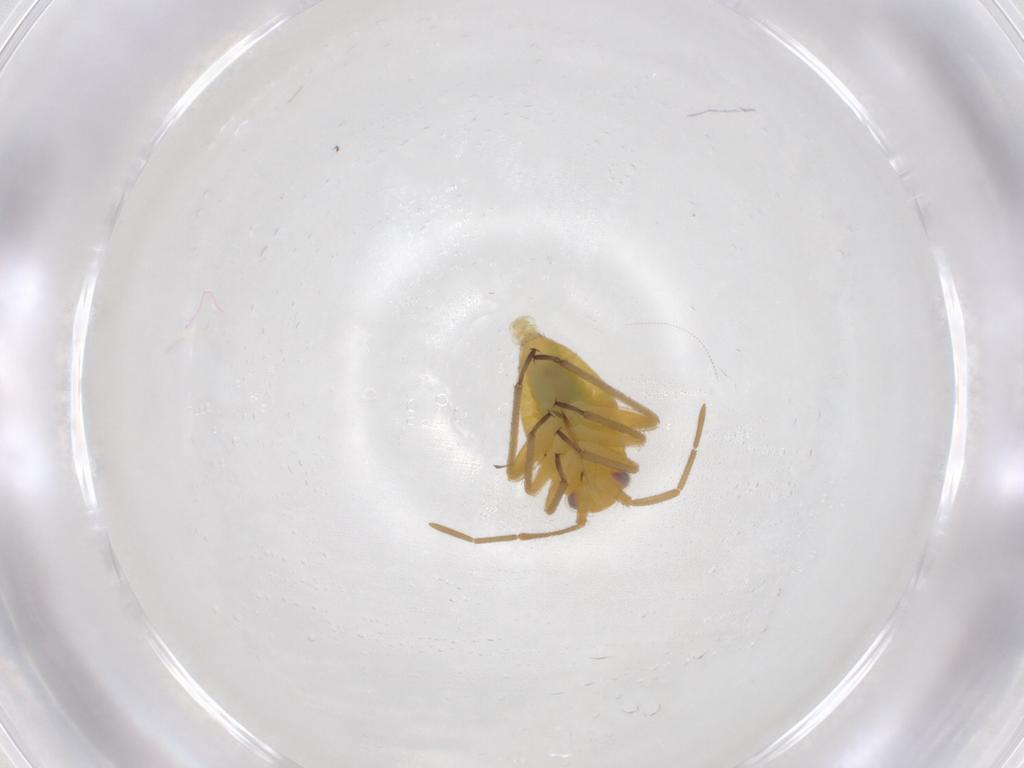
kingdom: Animalia
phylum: Arthropoda
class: Insecta
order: Hemiptera
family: Miridae
